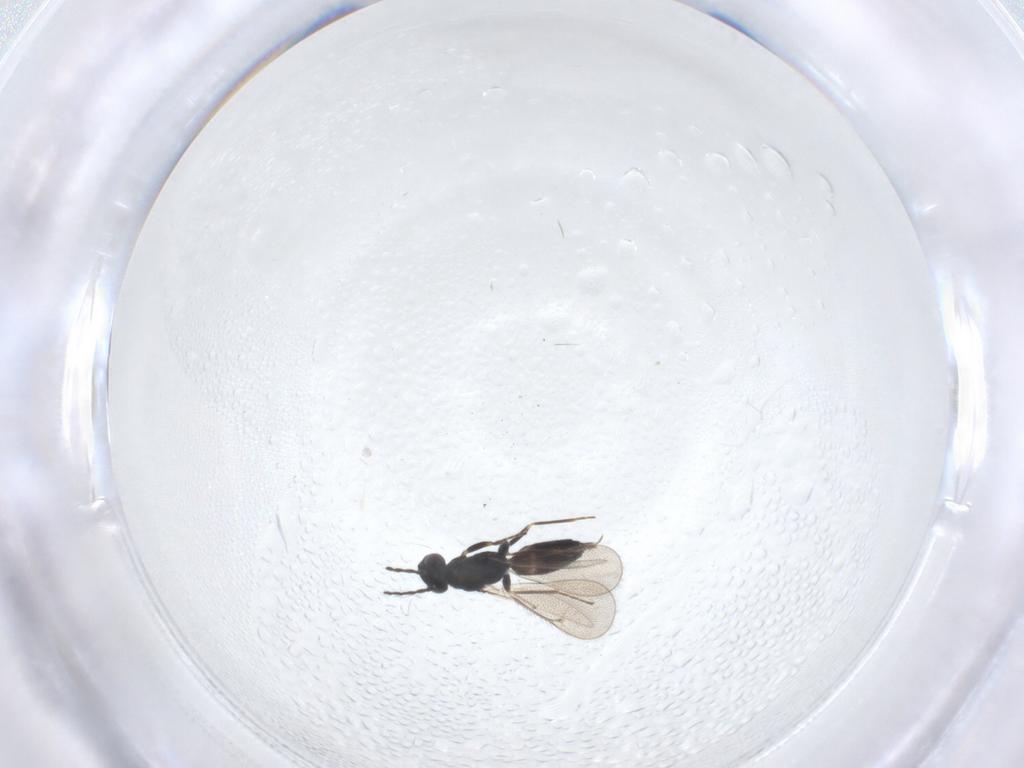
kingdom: Animalia
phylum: Arthropoda
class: Insecta
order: Hymenoptera
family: Eulophidae
